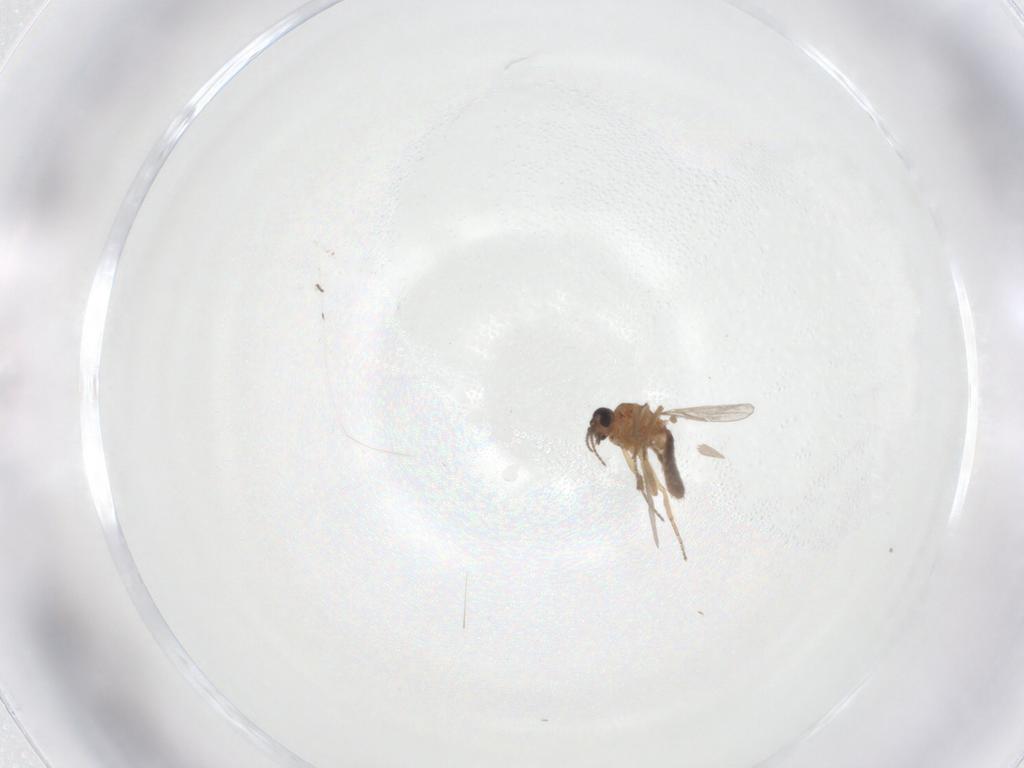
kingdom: Animalia
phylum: Arthropoda
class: Insecta
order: Diptera
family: Ceratopogonidae
